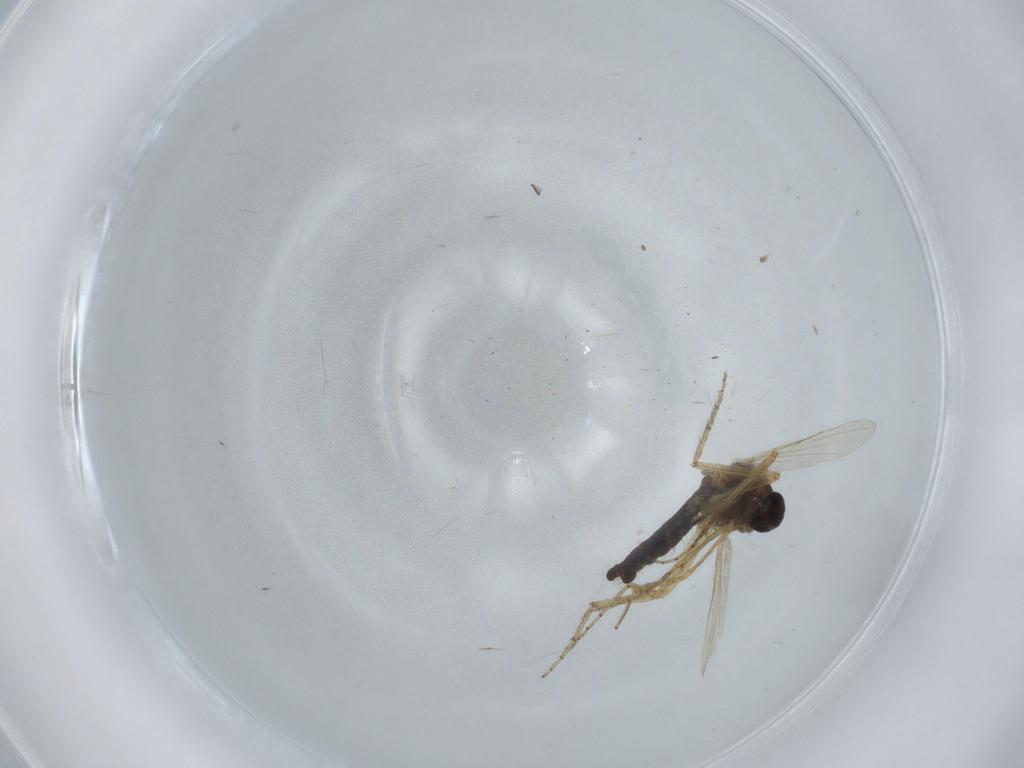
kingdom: Animalia
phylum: Arthropoda
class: Insecta
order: Diptera
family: Ceratopogonidae
